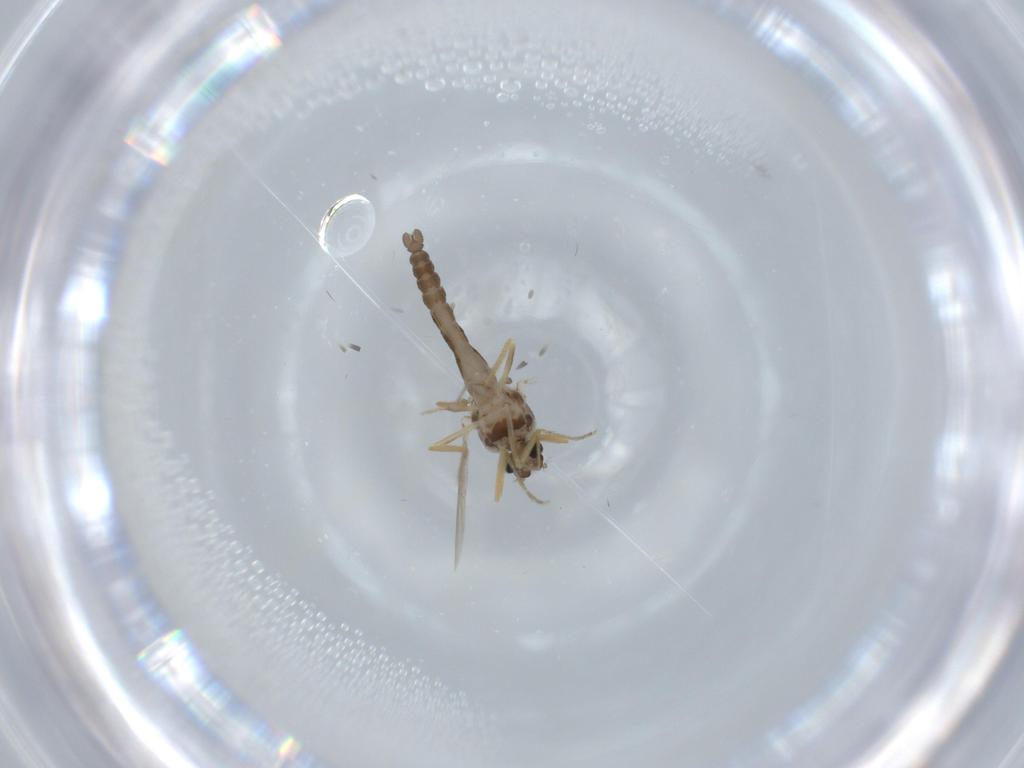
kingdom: Animalia
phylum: Arthropoda
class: Insecta
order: Diptera
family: Ceratopogonidae
